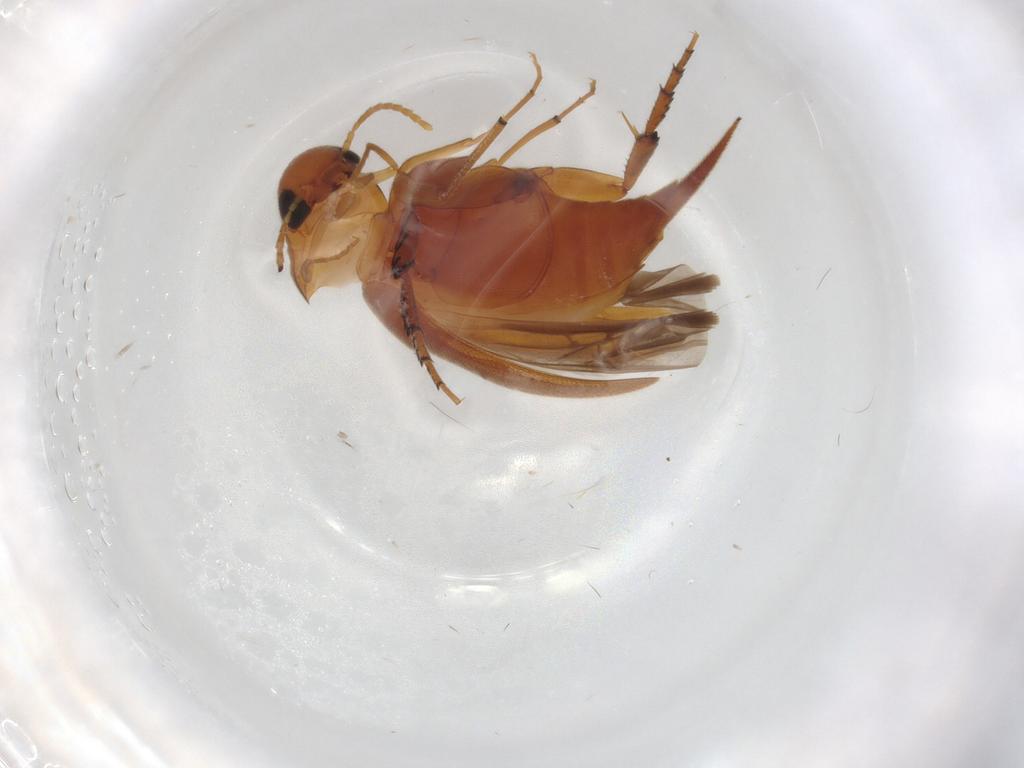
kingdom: Animalia
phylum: Arthropoda
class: Insecta
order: Coleoptera
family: Mordellidae
